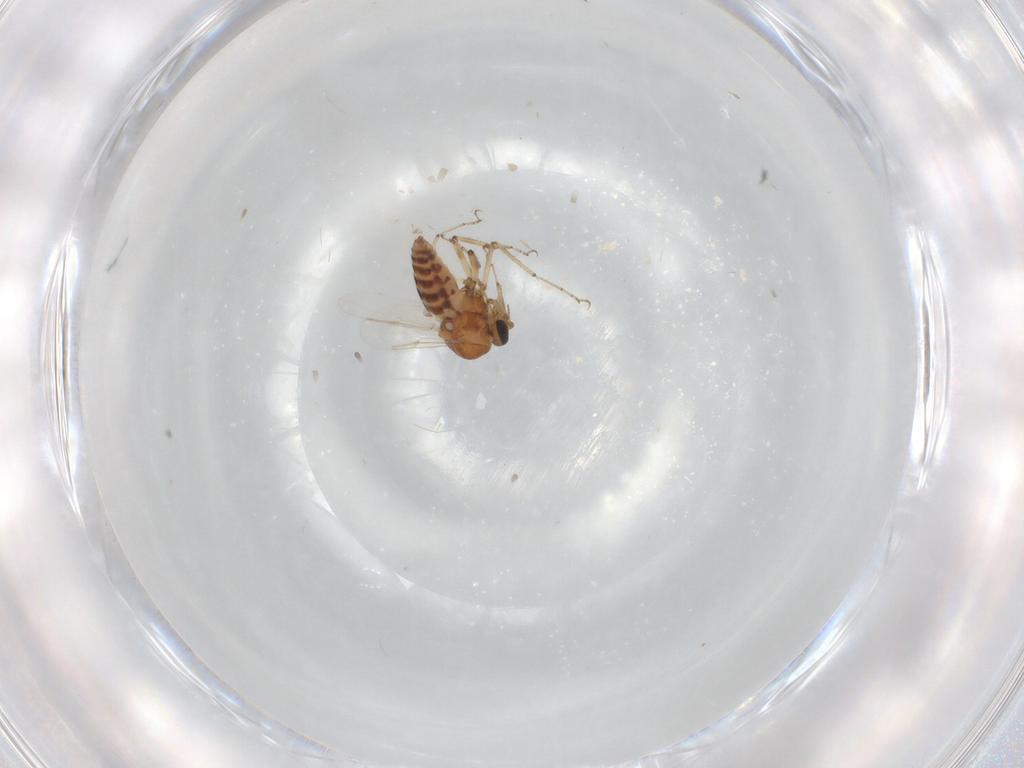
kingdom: Animalia
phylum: Arthropoda
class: Insecta
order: Diptera
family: Ceratopogonidae
